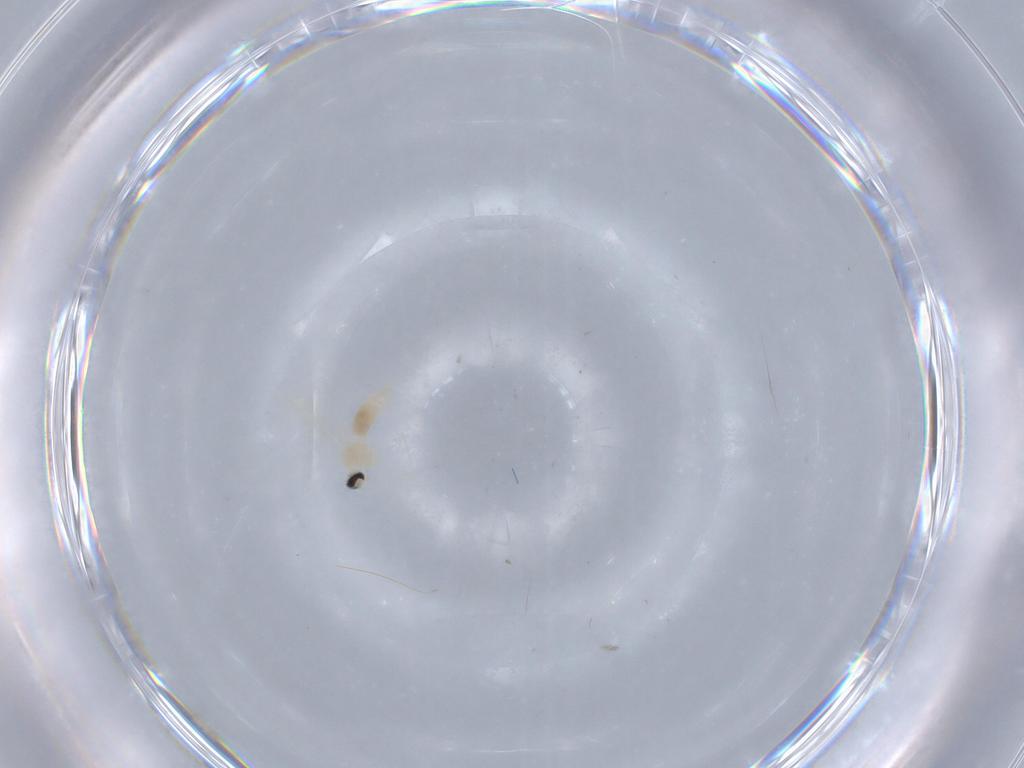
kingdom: Animalia
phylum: Arthropoda
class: Insecta
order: Diptera
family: Cecidomyiidae
